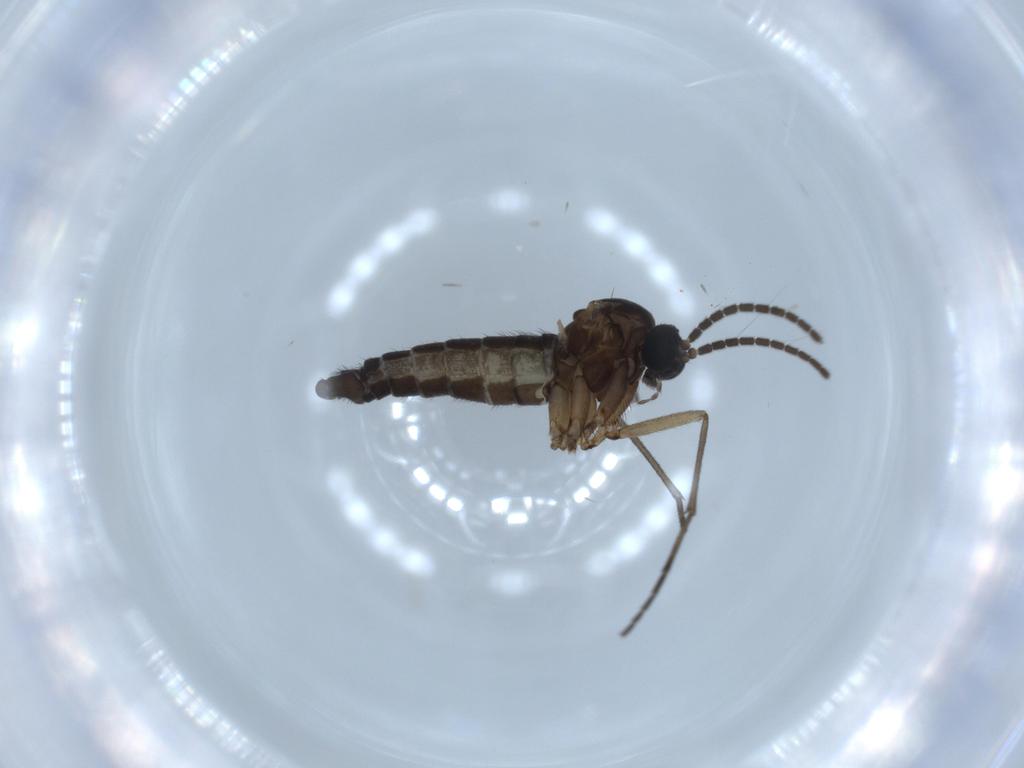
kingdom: Animalia
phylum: Arthropoda
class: Insecta
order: Diptera
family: Sciaridae
